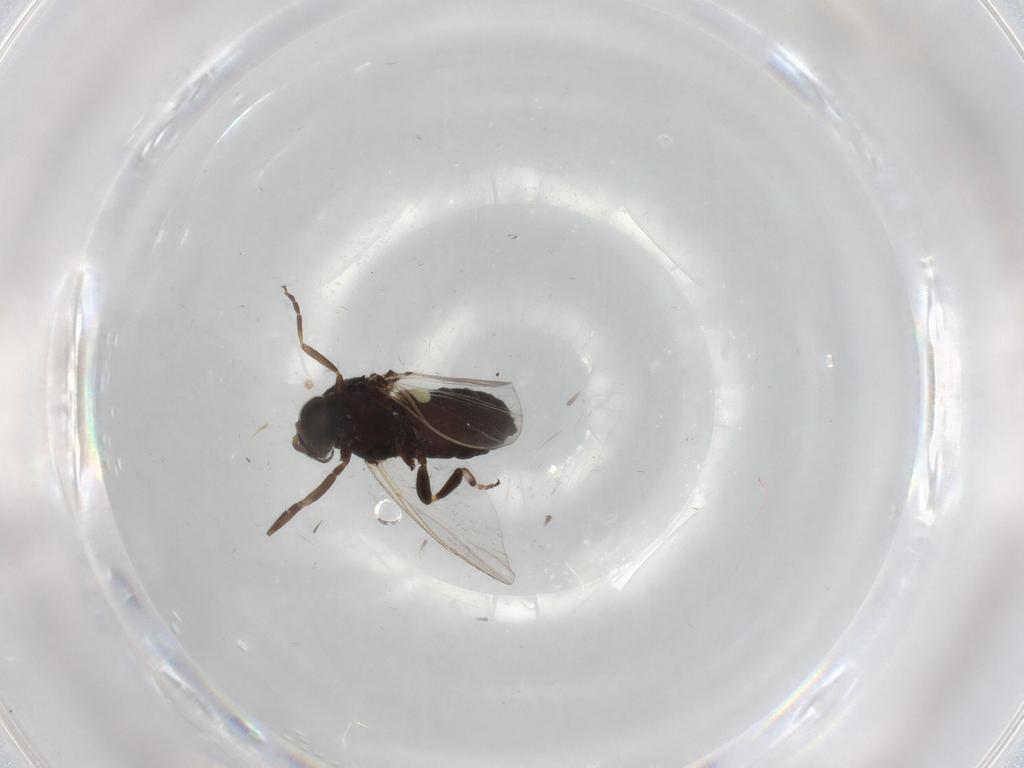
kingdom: Animalia
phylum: Arthropoda
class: Insecta
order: Diptera
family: Phoridae
